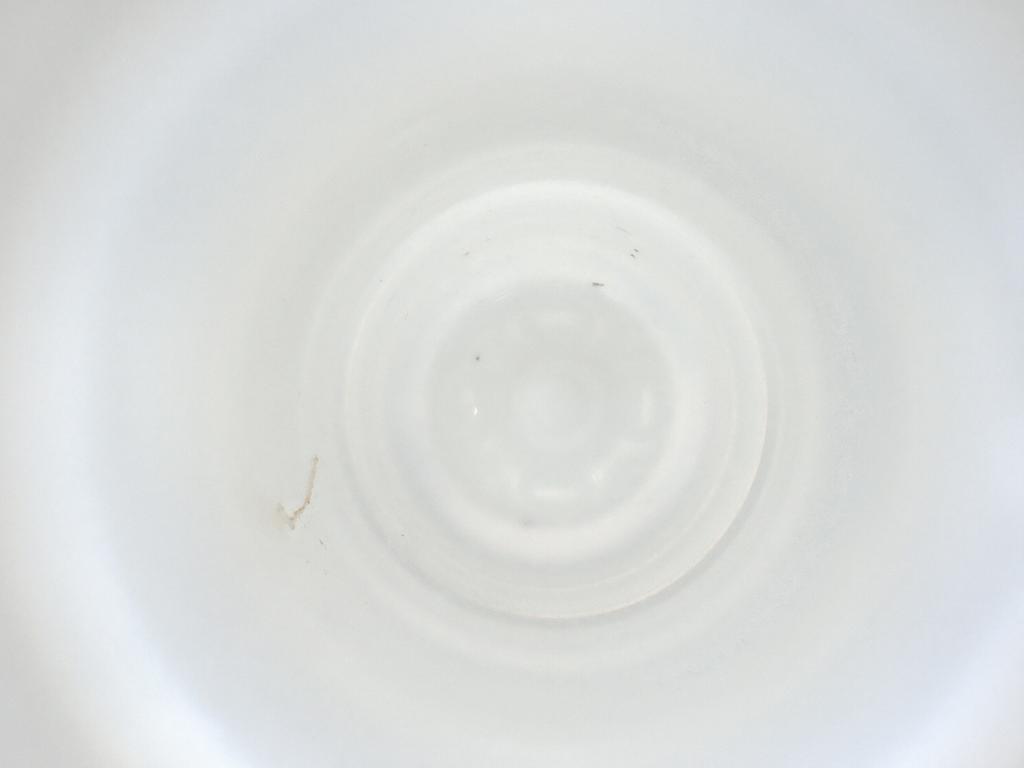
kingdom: Animalia
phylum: Arthropoda
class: Insecta
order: Diptera
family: Cecidomyiidae
